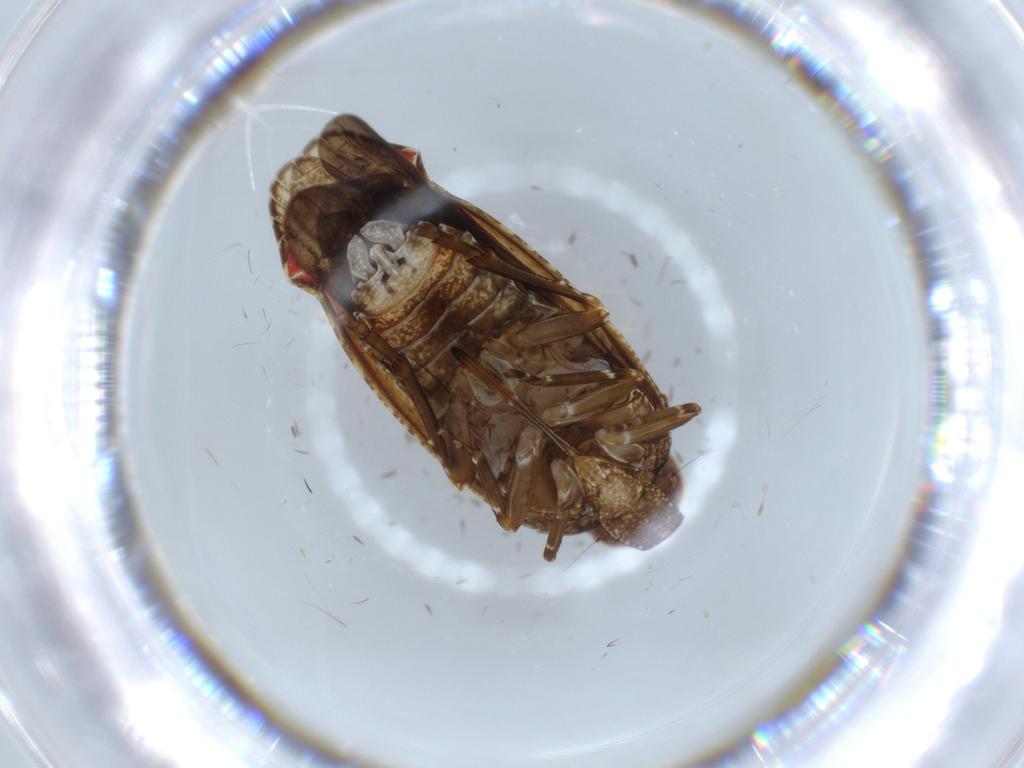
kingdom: Animalia
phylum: Arthropoda
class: Insecta
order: Hemiptera
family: Achilidae
